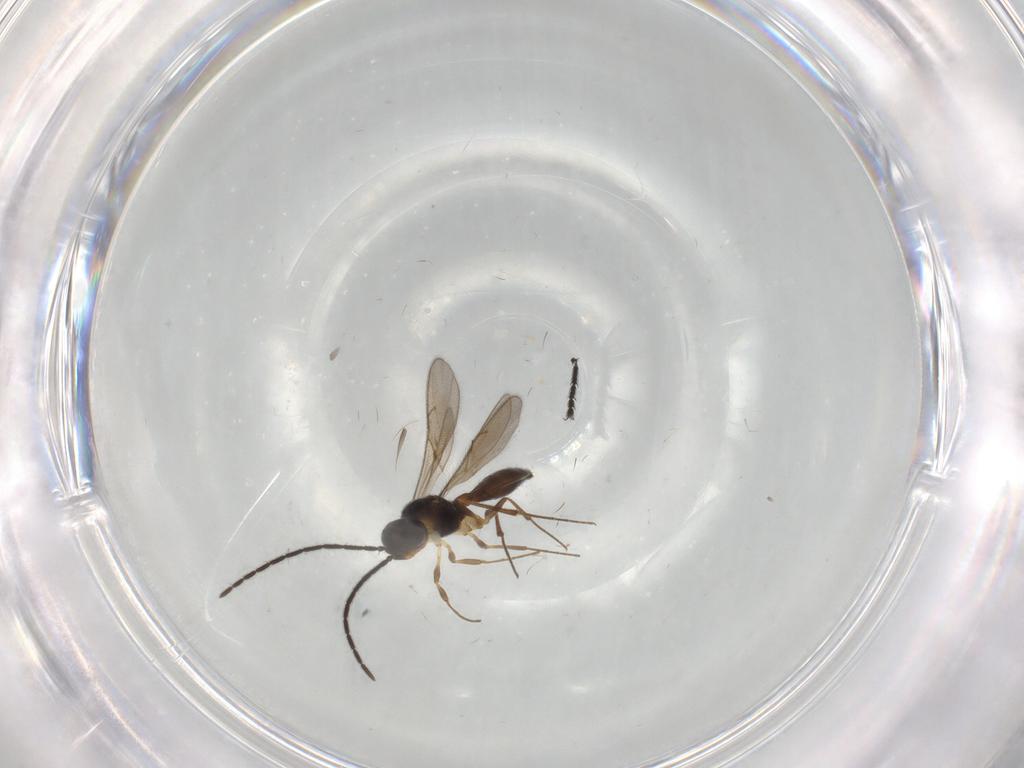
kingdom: Animalia
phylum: Arthropoda
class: Insecta
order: Hymenoptera
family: Scelionidae
